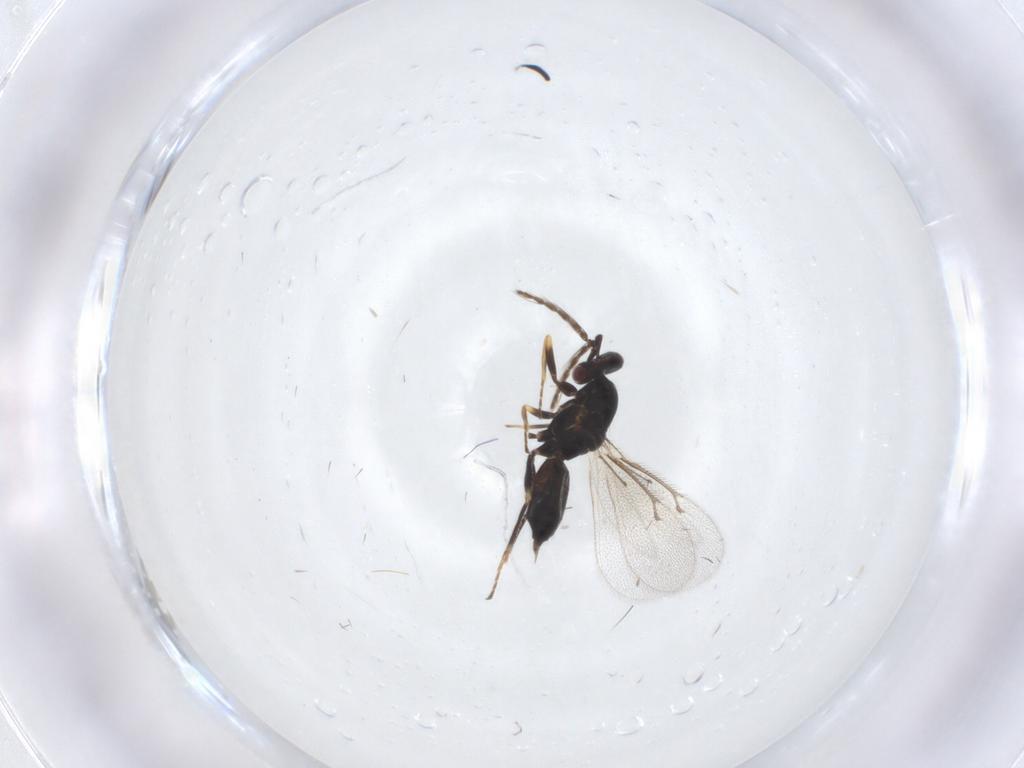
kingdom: Animalia
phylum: Arthropoda
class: Insecta
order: Hymenoptera
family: Eulophidae
